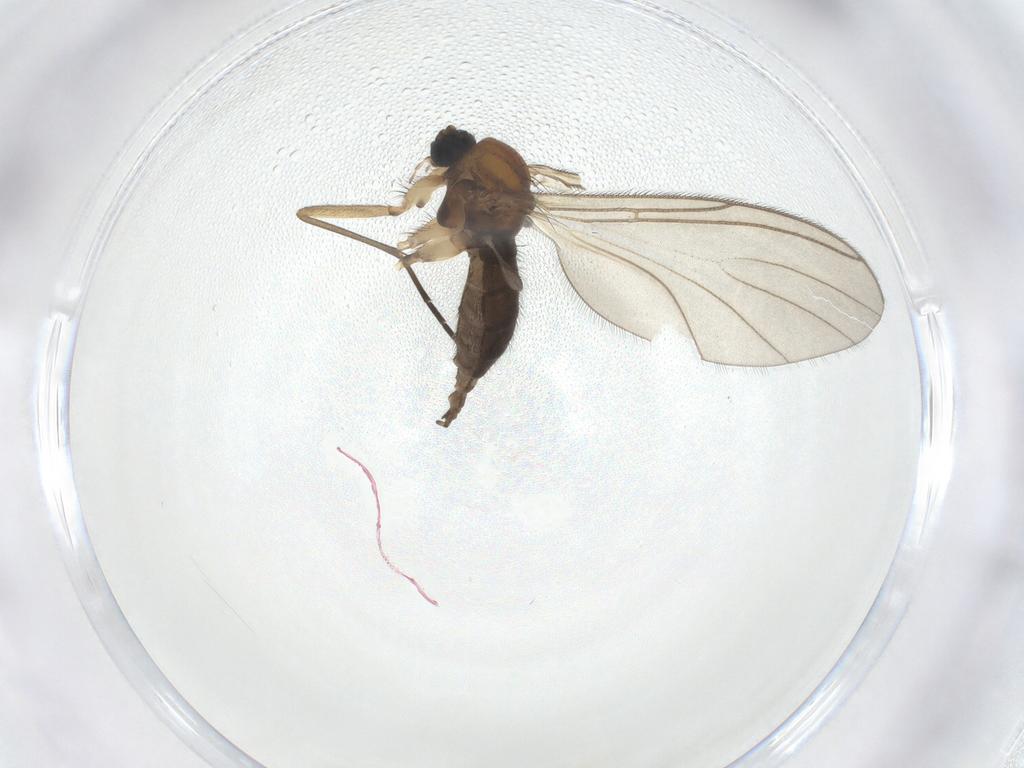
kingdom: Animalia
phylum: Arthropoda
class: Insecta
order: Diptera
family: Sciaridae
